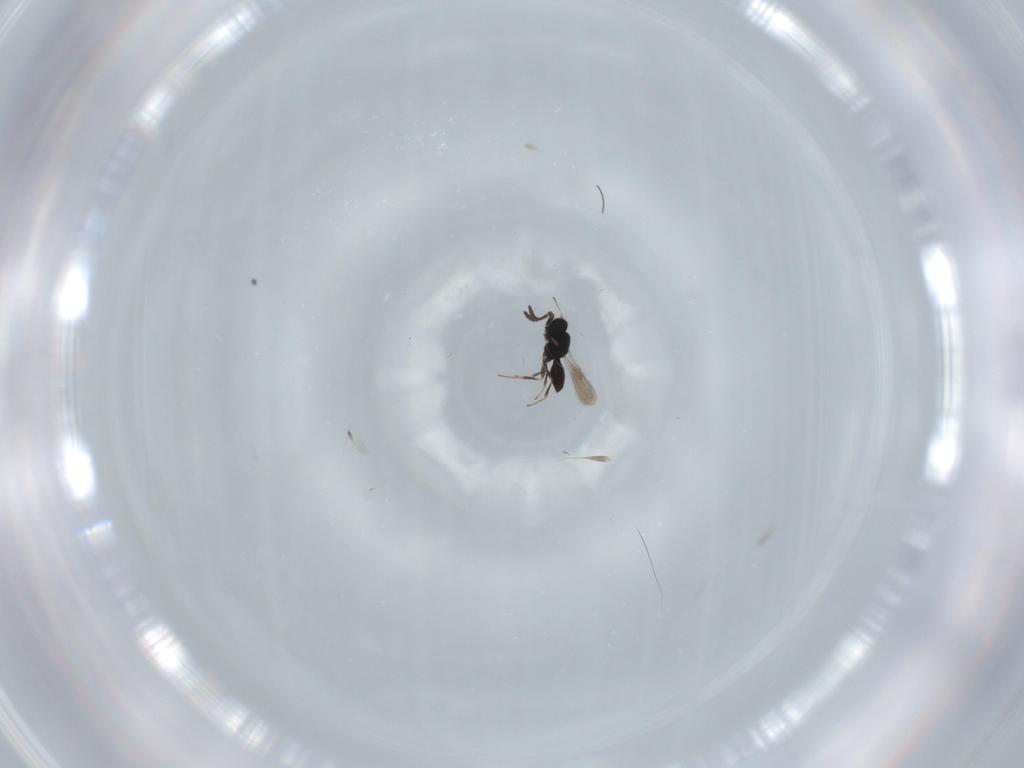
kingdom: Animalia
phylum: Arthropoda
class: Insecta
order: Hymenoptera
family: Scelionidae
